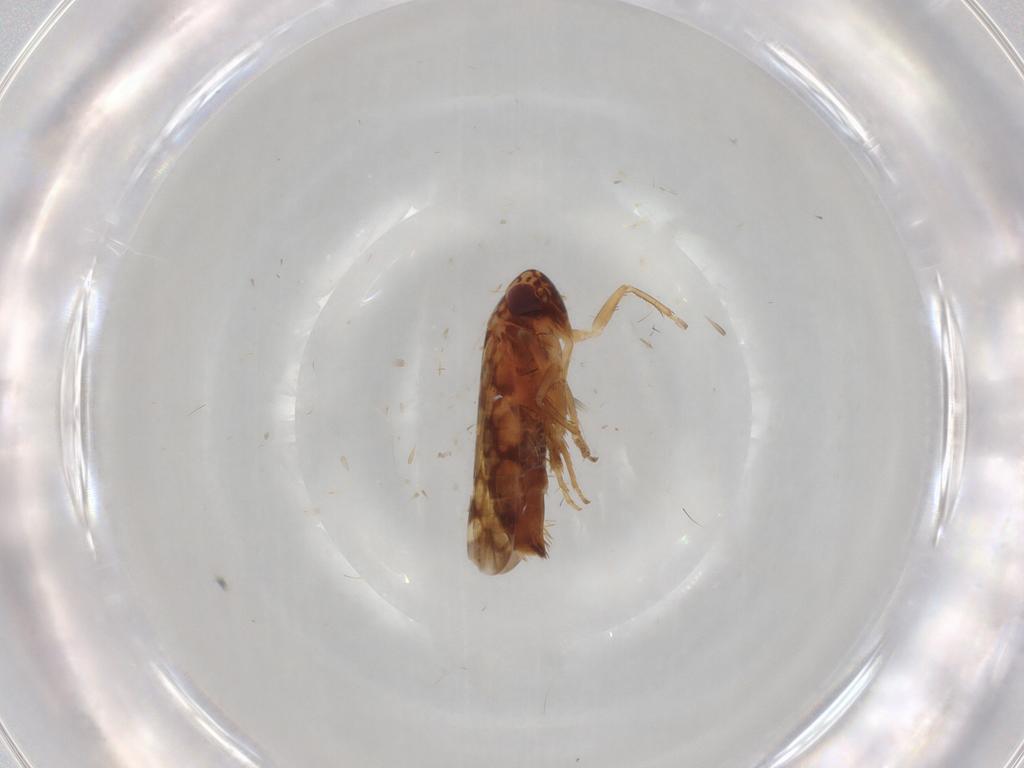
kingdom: Animalia
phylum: Arthropoda
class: Insecta
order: Hemiptera
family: Cicadellidae
